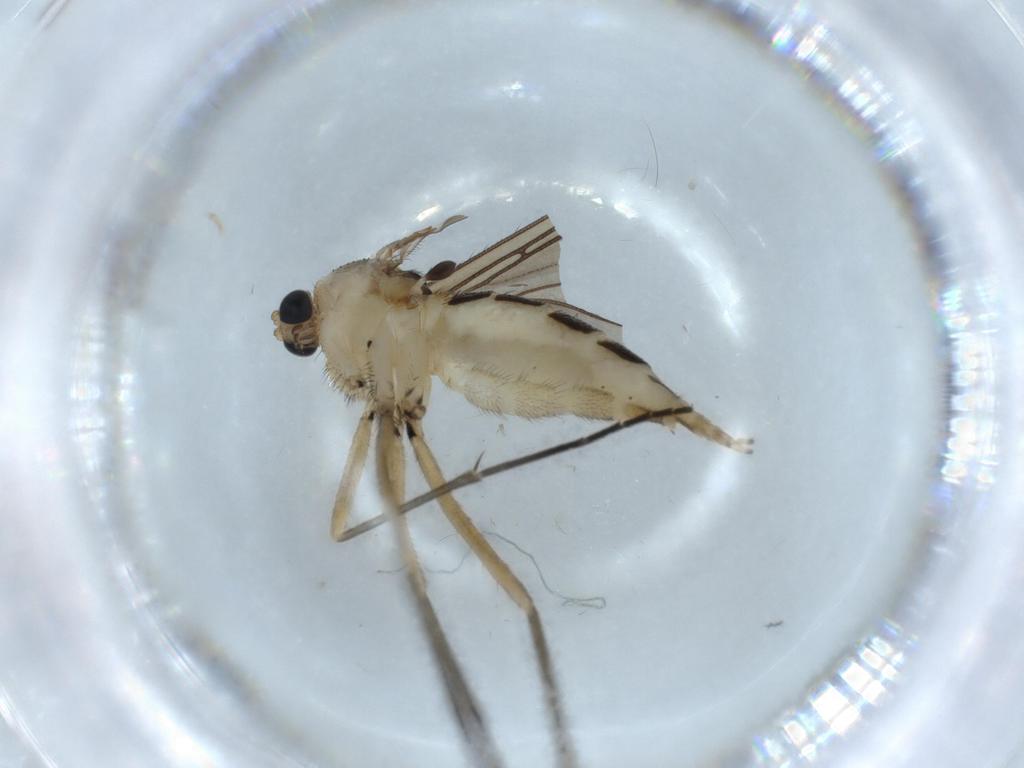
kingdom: Animalia
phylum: Arthropoda
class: Insecta
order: Diptera
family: Sciaridae
